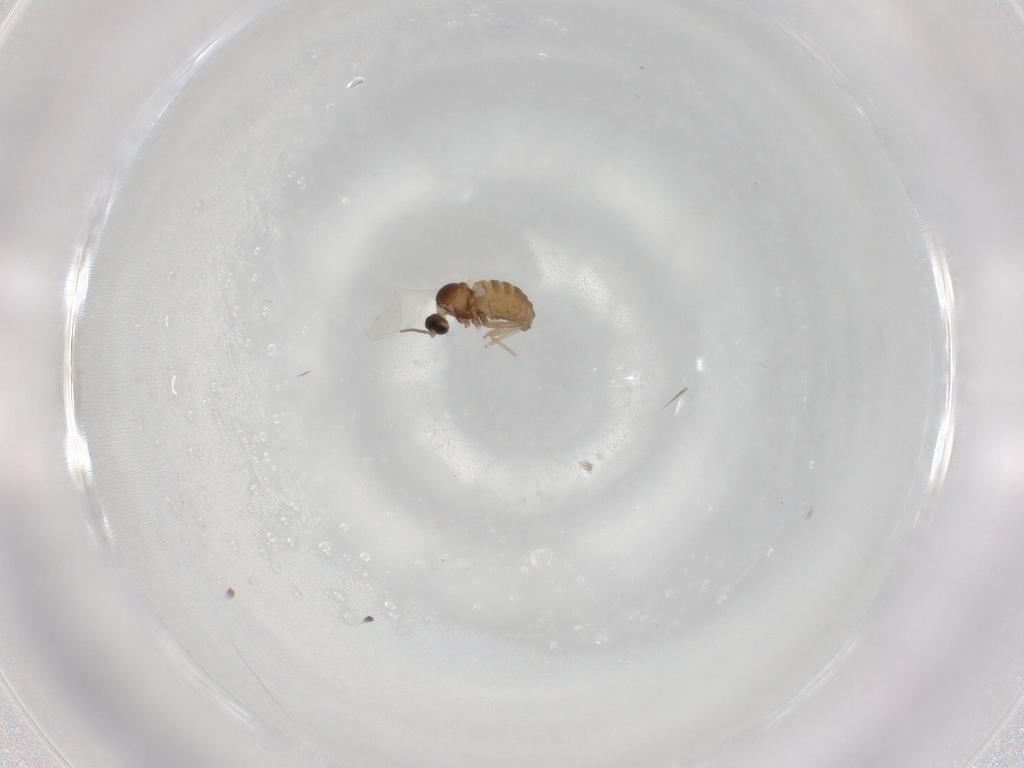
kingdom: Animalia
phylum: Arthropoda
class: Insecta
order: Diptera
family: Cecidomyiidae
